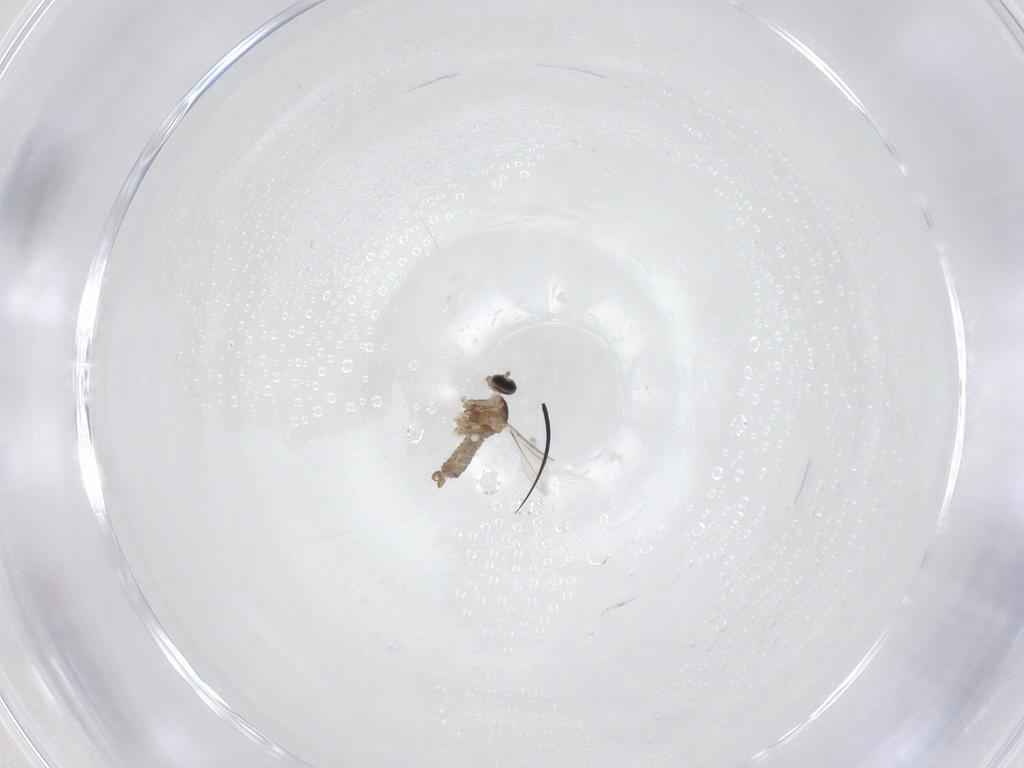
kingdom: Animalia
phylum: Arthropoda
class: Insecta
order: Diptera
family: Cecidomyiidae
